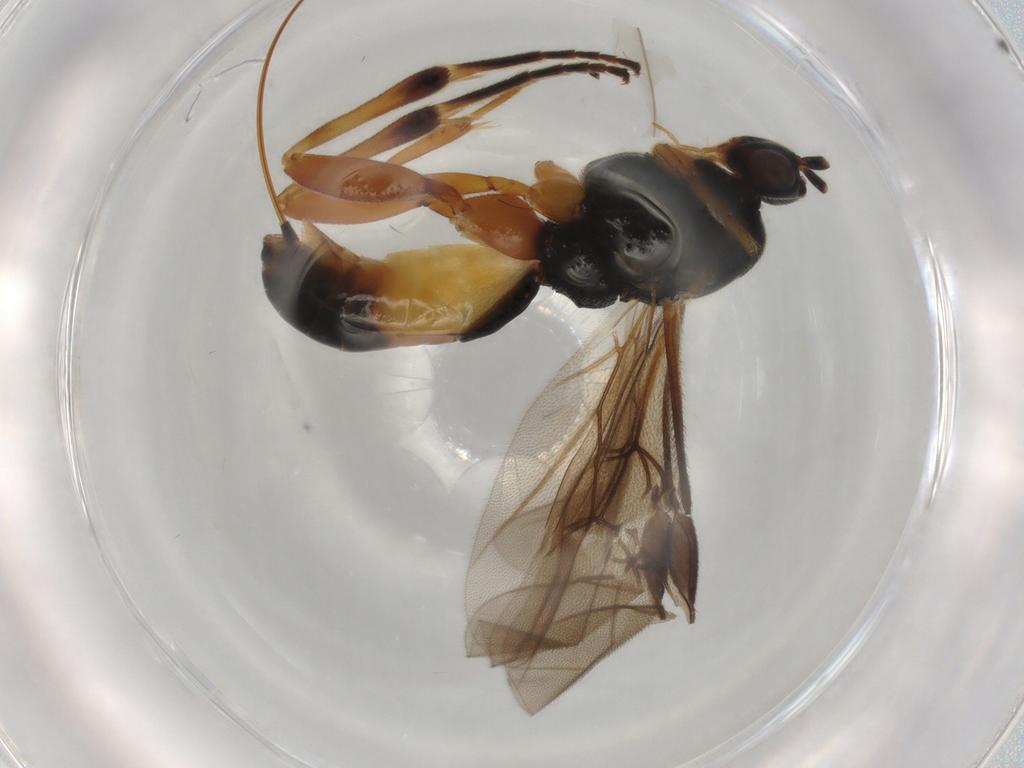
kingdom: Animalia
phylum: Arthropoda
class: Insecta
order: Hymenoptera
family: Braconidae
